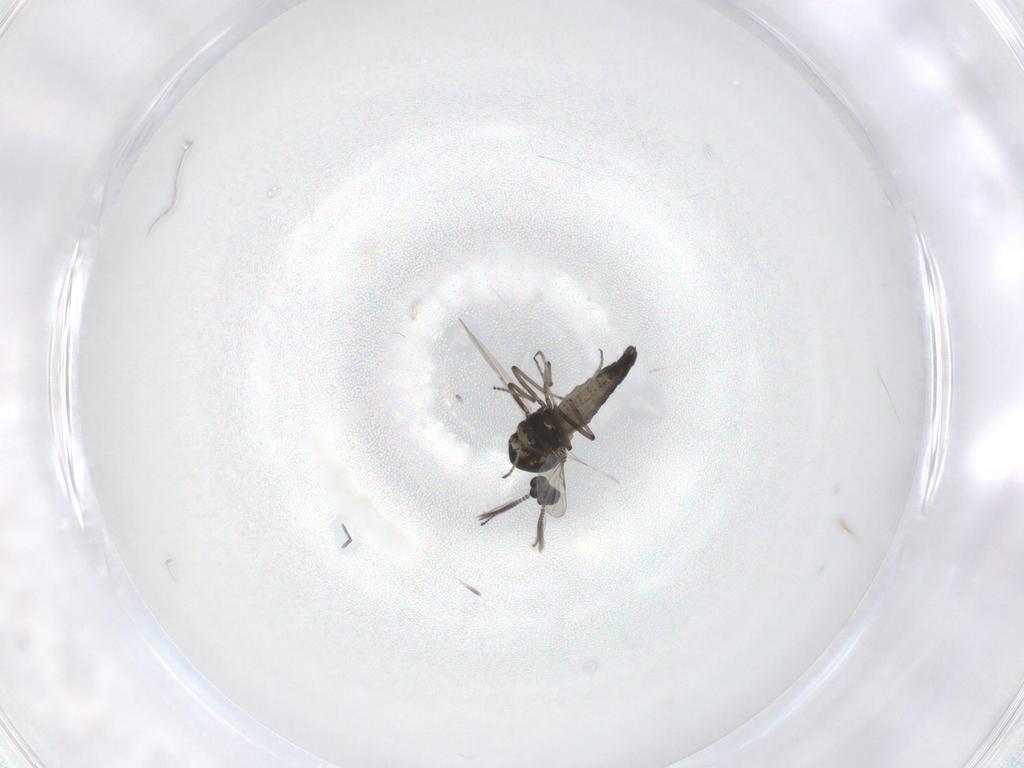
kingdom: Animalia
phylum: Arthropoda
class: Insecta
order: Diptera
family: Ceratopogonidae
